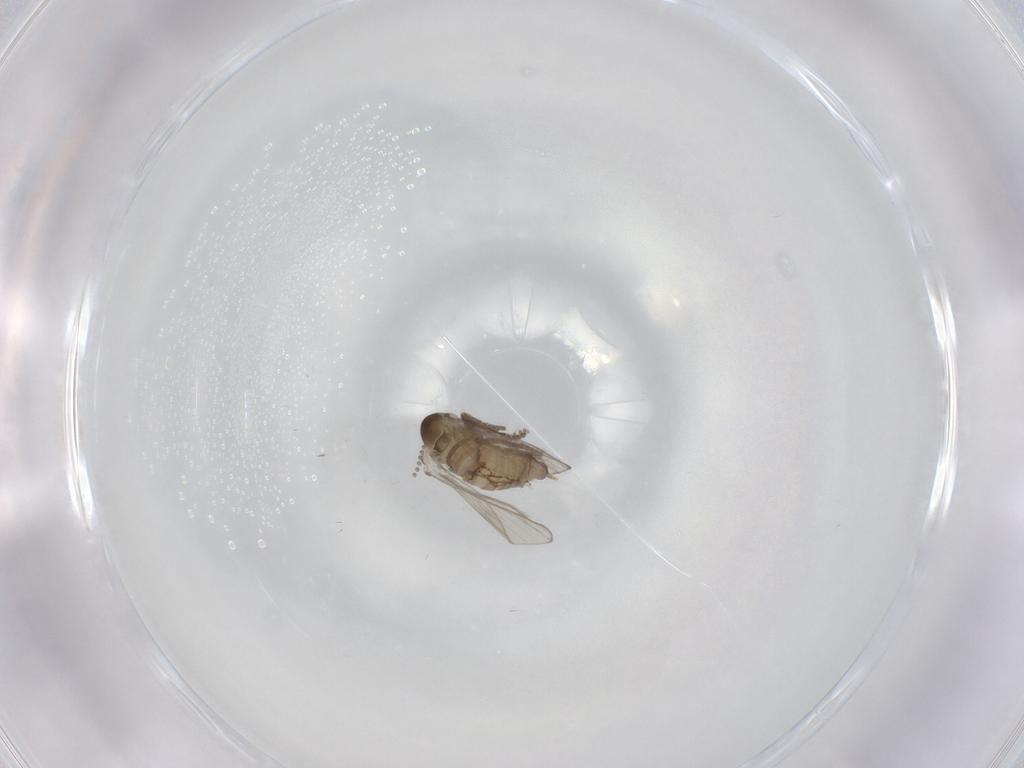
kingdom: Animalia
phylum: Arthropoda
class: Insecta
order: Diptera
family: Psychodidae
